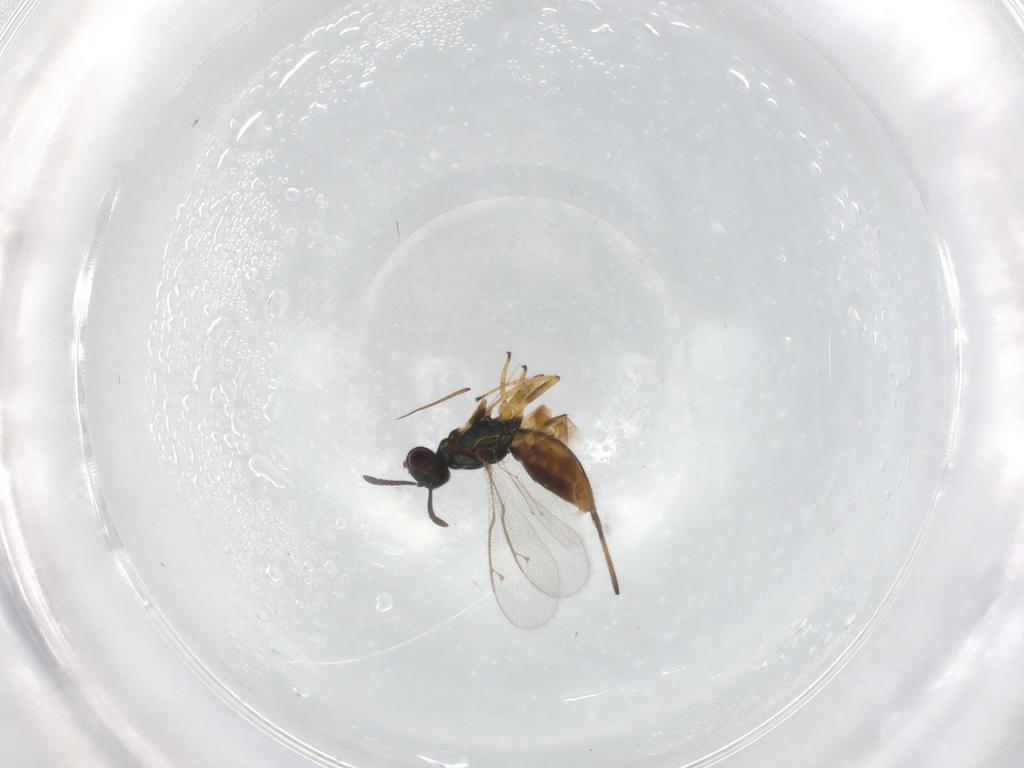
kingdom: Animalia
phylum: Arthropoda
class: Insecta
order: Hymenoptera
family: Eupelmidae
